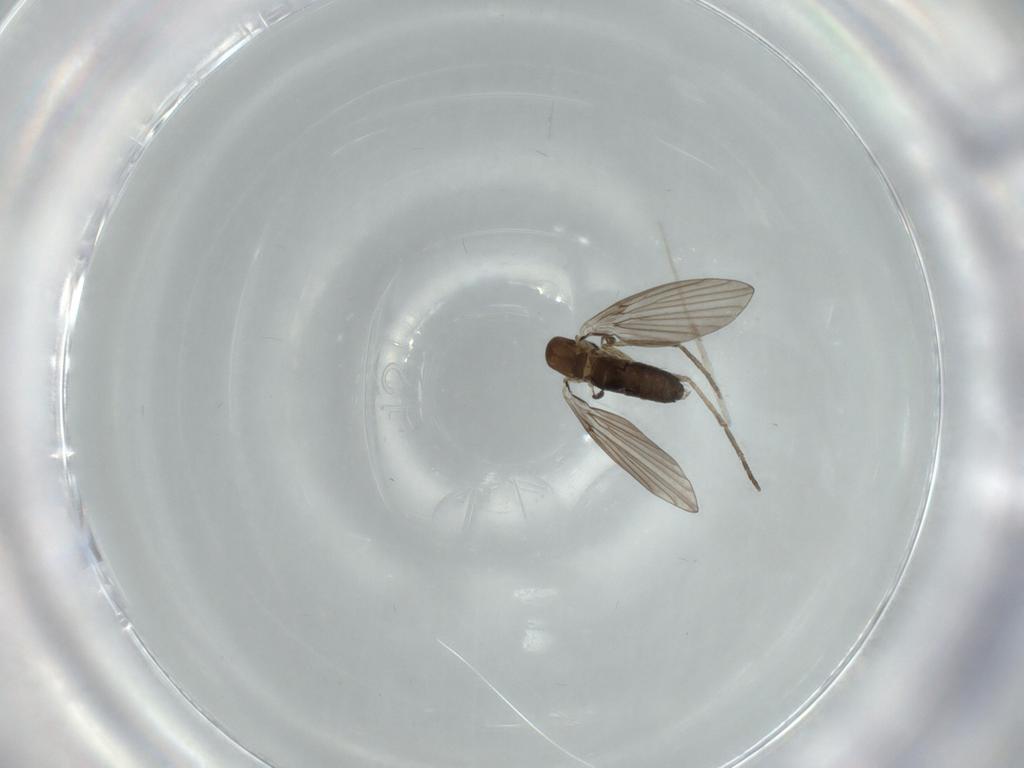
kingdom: Animalia
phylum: Arthropoda
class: Insecta
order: Diptera
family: Psychodidae
